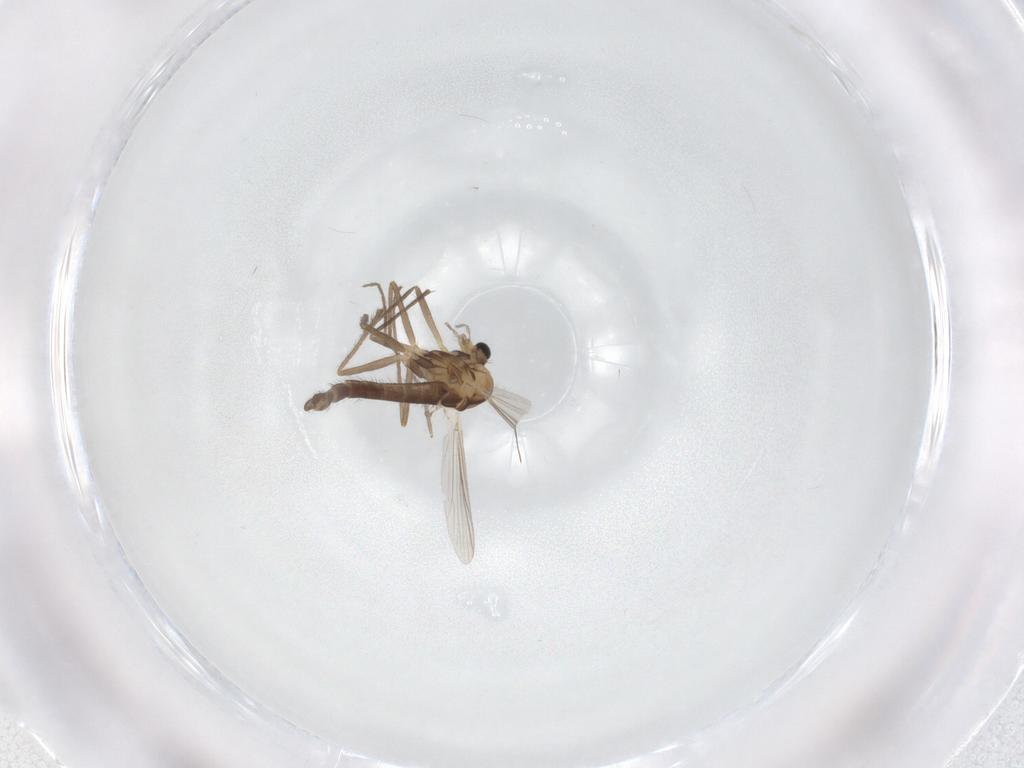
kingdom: Animalia
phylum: Arthropoda
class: Insecta
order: Diptera
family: Chironomidae
